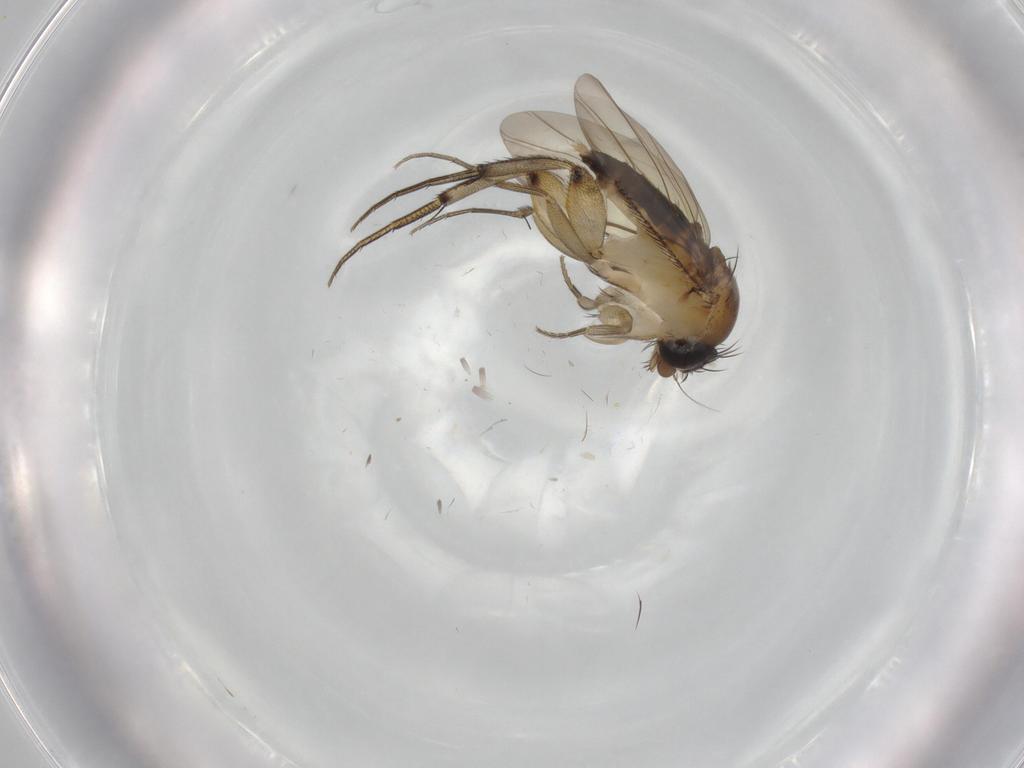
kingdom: Animalia
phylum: Arthropoda
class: Insecta
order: Diptera
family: Phoridae
